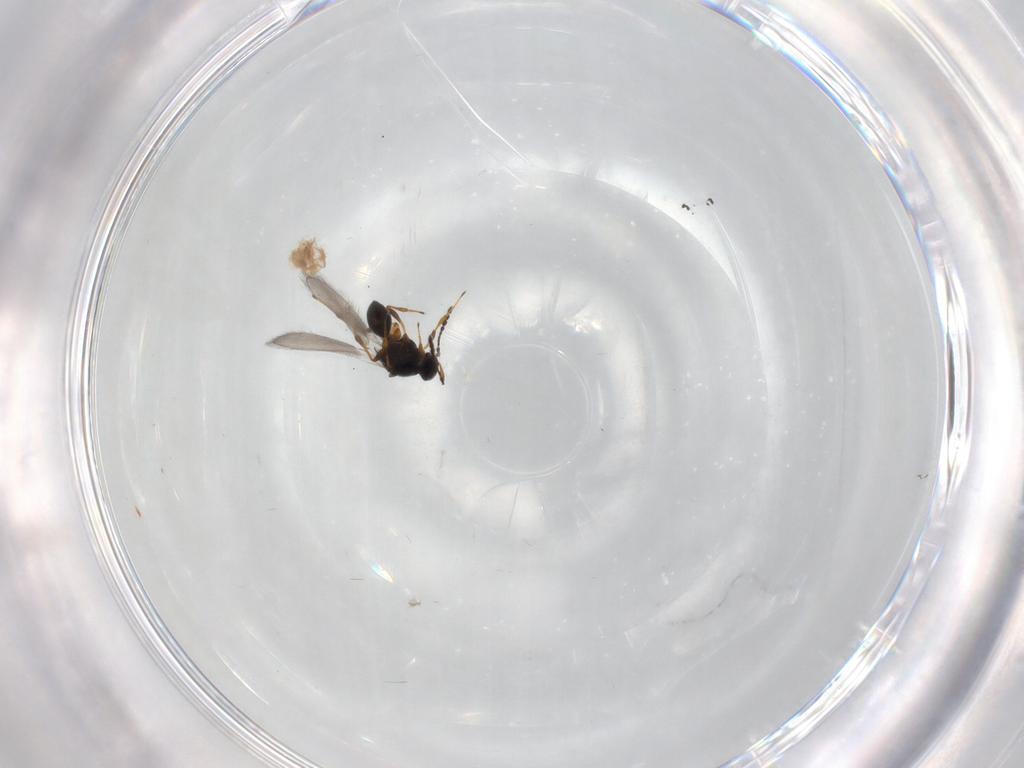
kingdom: Animalia
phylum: Arthropoda
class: Insecta
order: Hymenoptera
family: Platygastridae
